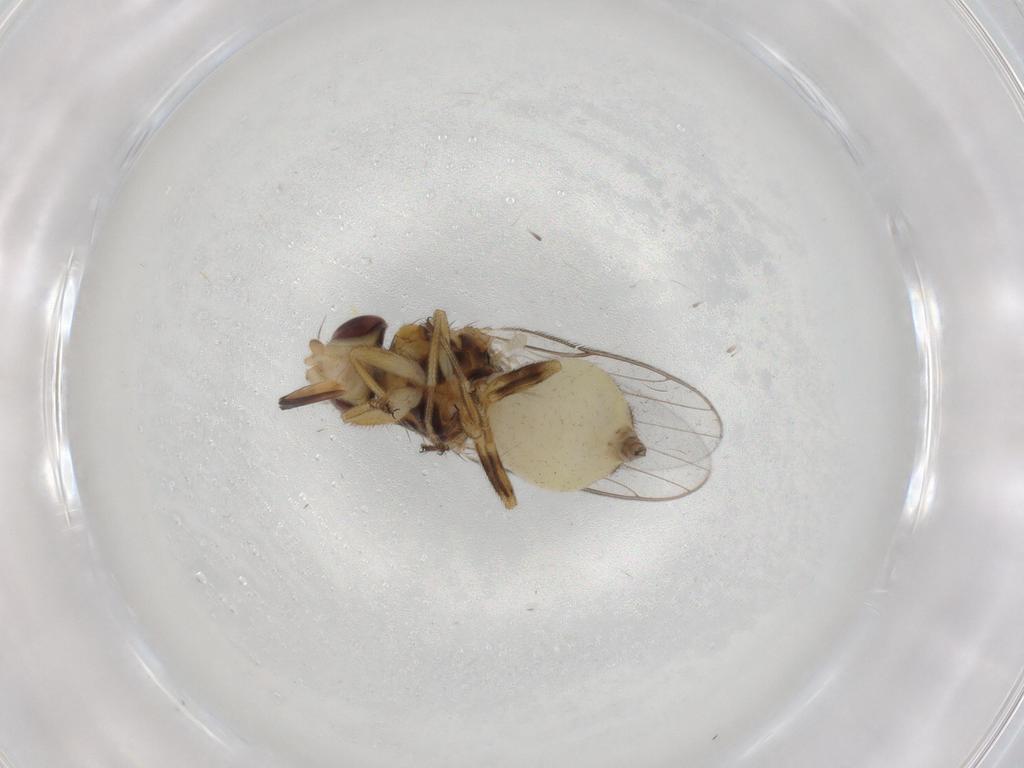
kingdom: Animalia
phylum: Arthropoda
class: Insecta
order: Diptera
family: Chloropidae
